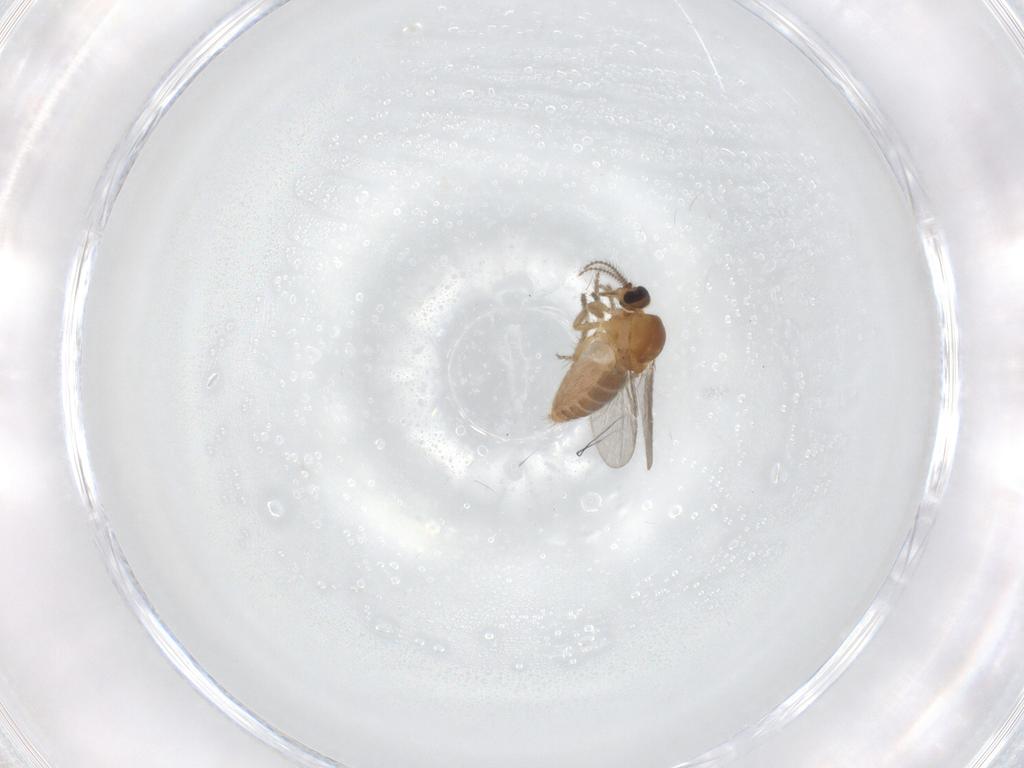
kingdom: Animalia
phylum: Arthropoda
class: Insecta
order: Diptera
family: Ceratopogonidae
